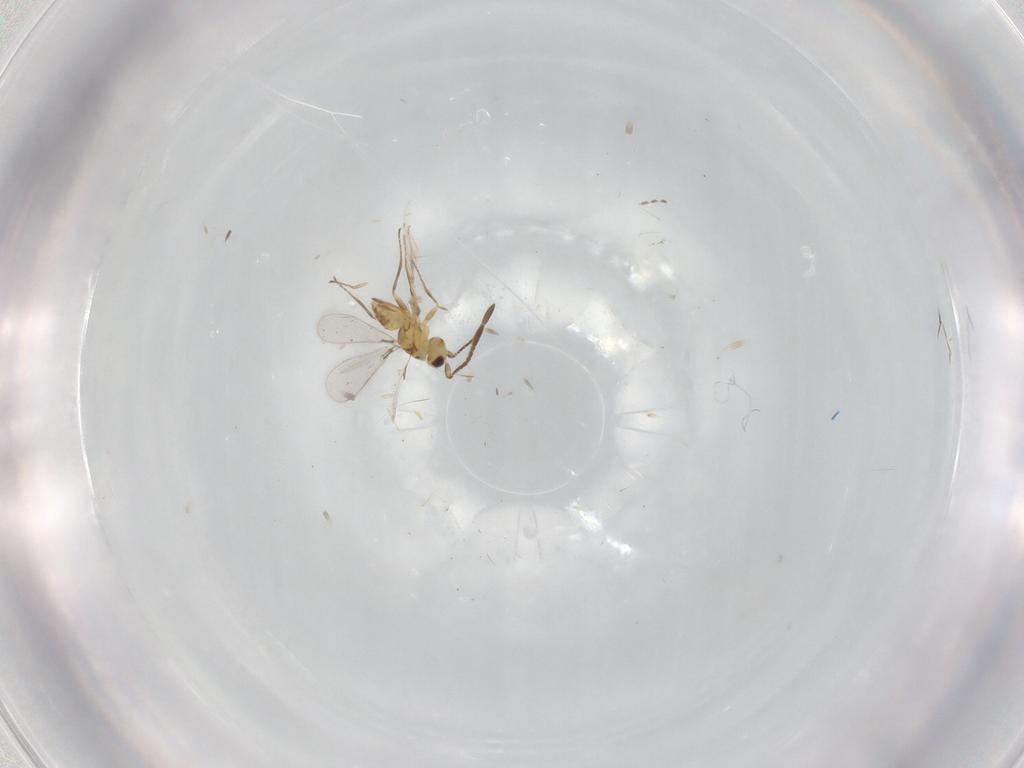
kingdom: Animalia
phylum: Arthropoda
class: Insecta
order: Hymenoptera
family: Mymaridae
